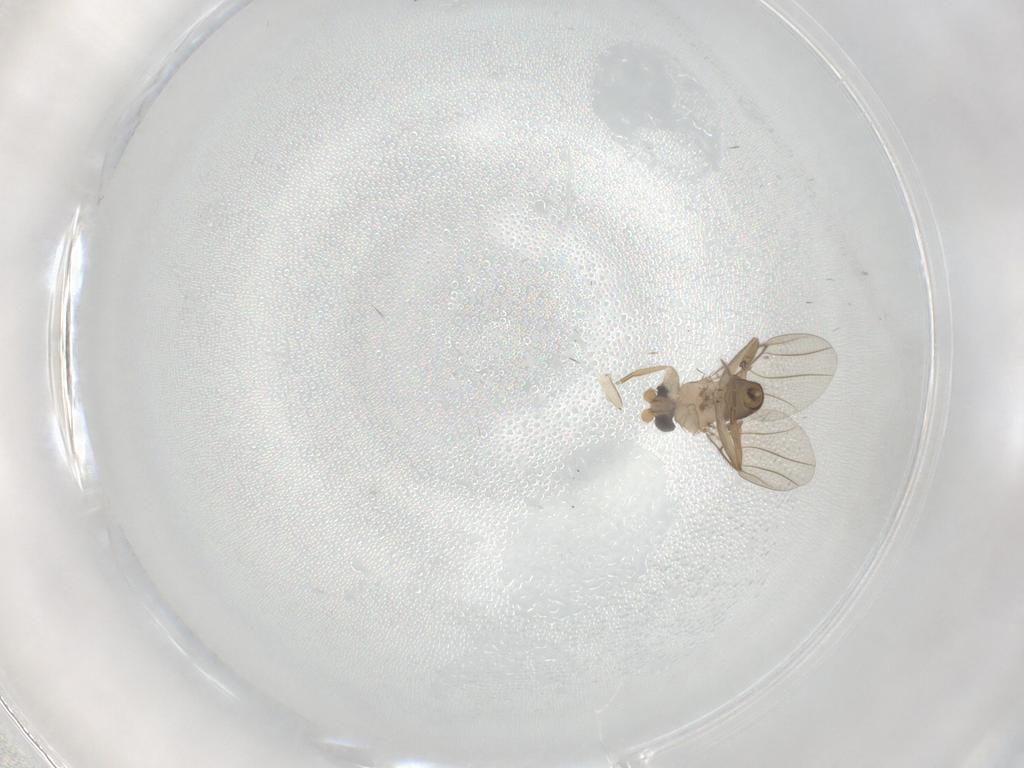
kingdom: Animalia
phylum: Arthropoda
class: Insecta
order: Diptera
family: Phoridae
